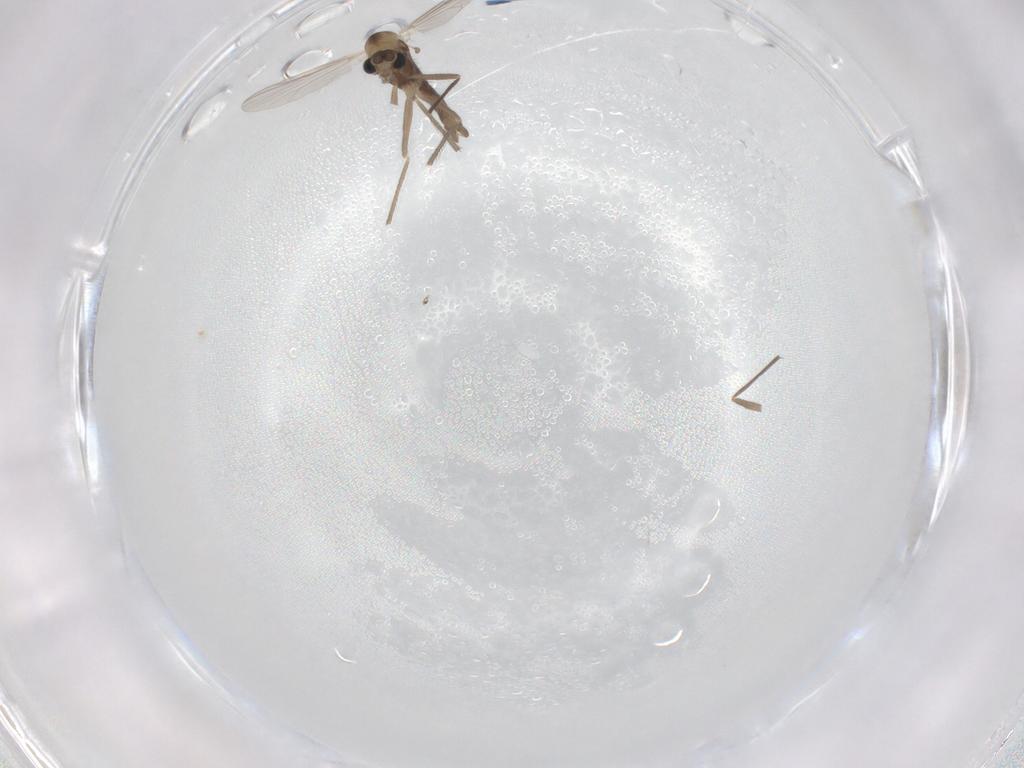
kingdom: Animalia
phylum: Arthropoda
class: Insecta
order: Diptera
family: Chironomidae
